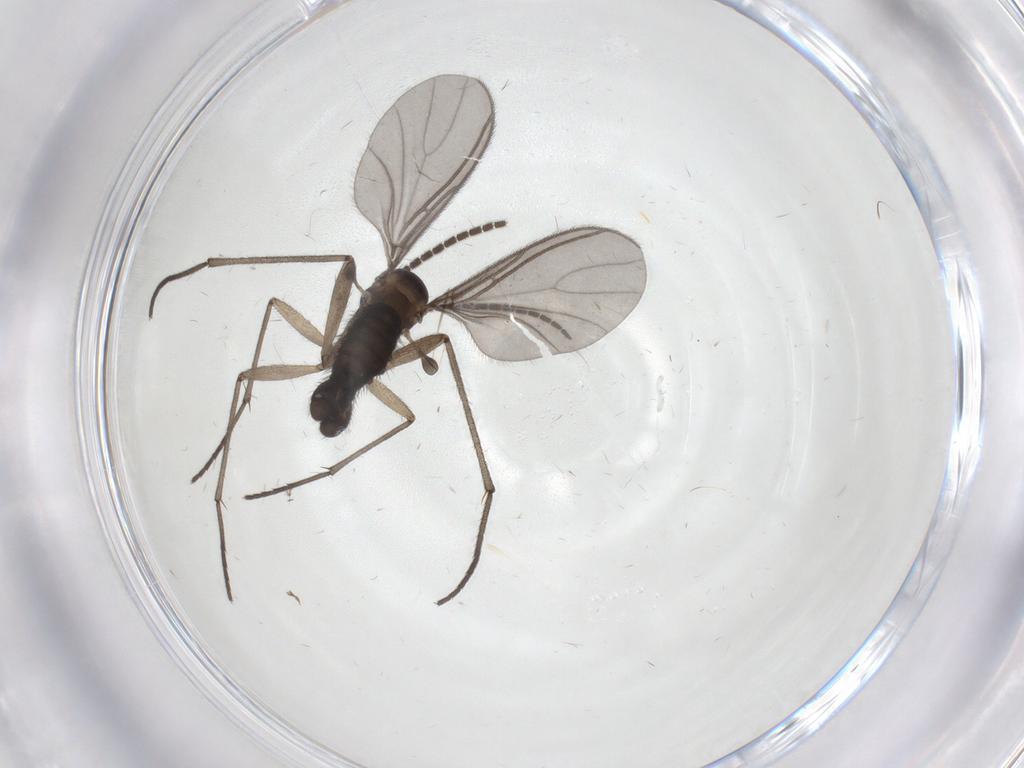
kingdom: Animalia
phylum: Arthropoda
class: Insecta
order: Diptera
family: Sciaridae
